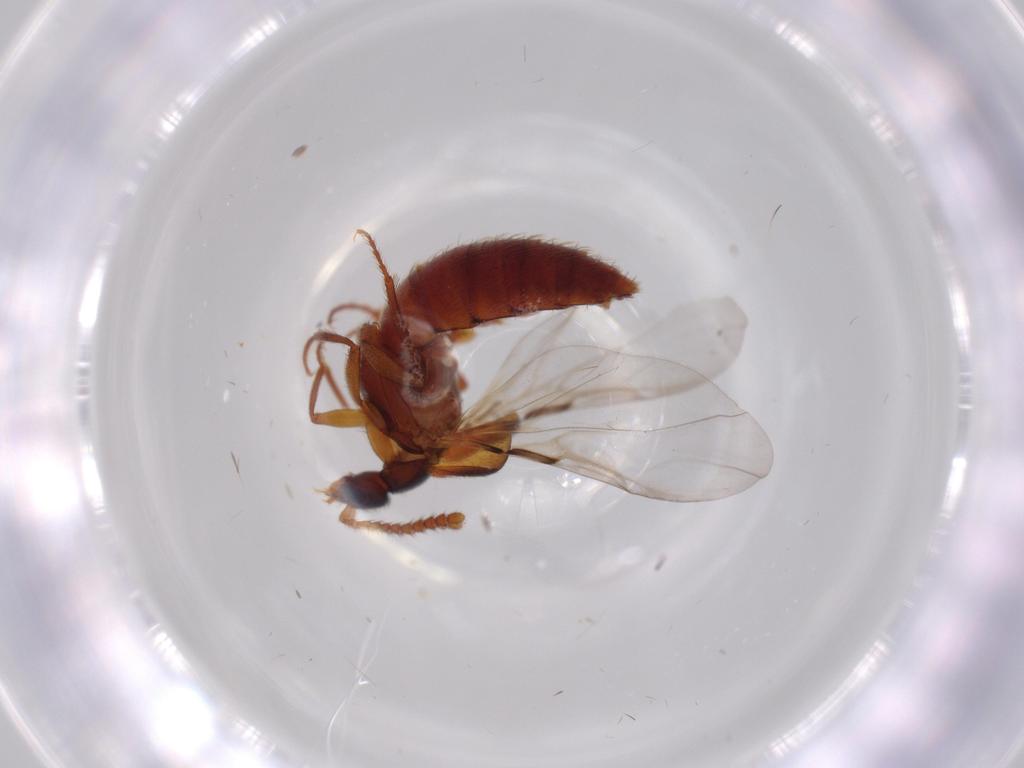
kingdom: Animalia
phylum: Arthropoda
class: Insecta
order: Coleoptera
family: Staphylinidae
